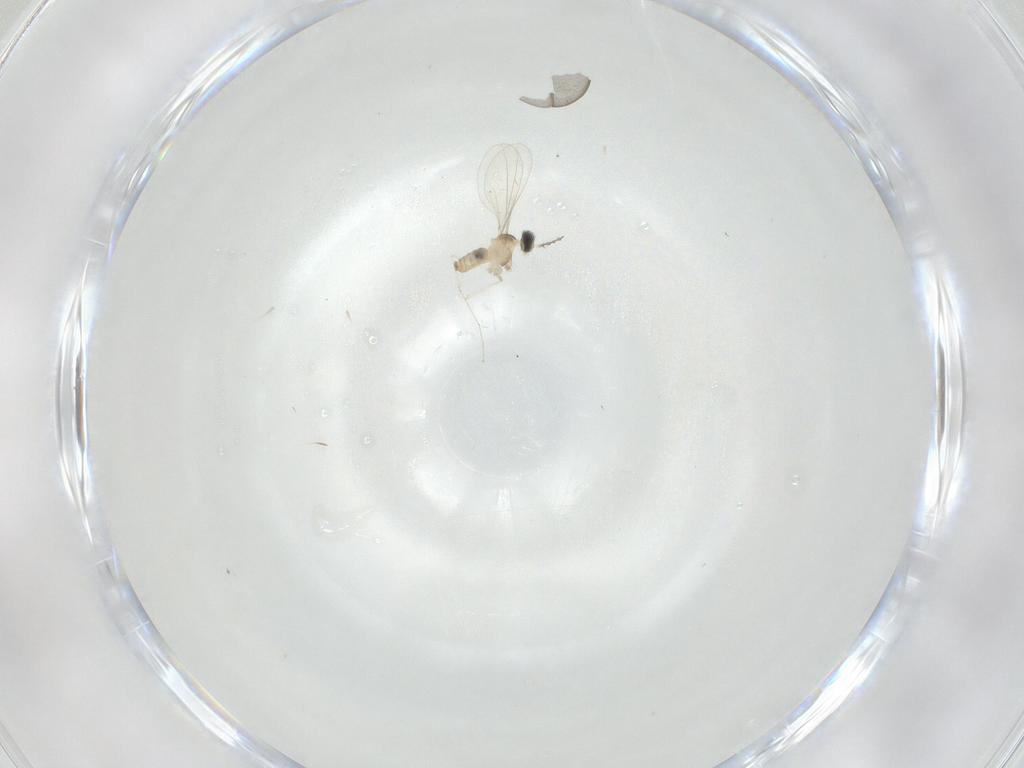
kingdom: Animalia
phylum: Arthropoda
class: Insecta
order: Diptera
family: Cecidomyiidae
